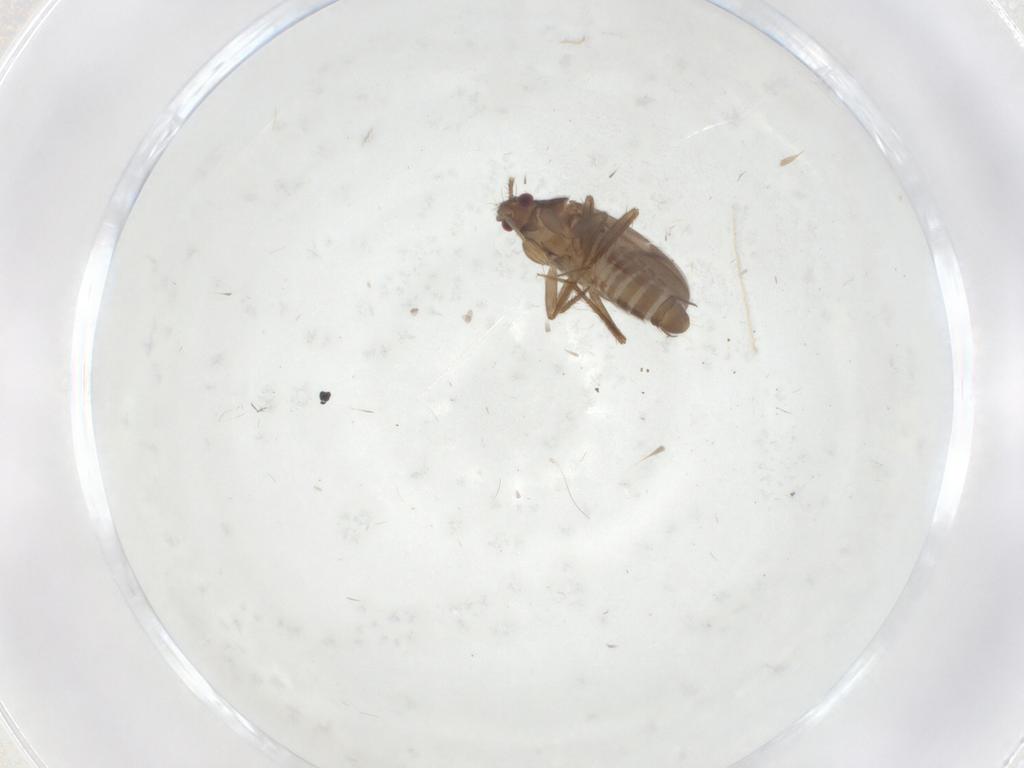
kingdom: Animalia
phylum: Arthropoda
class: Insecta
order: Hemiptera
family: Ceratocombidae
